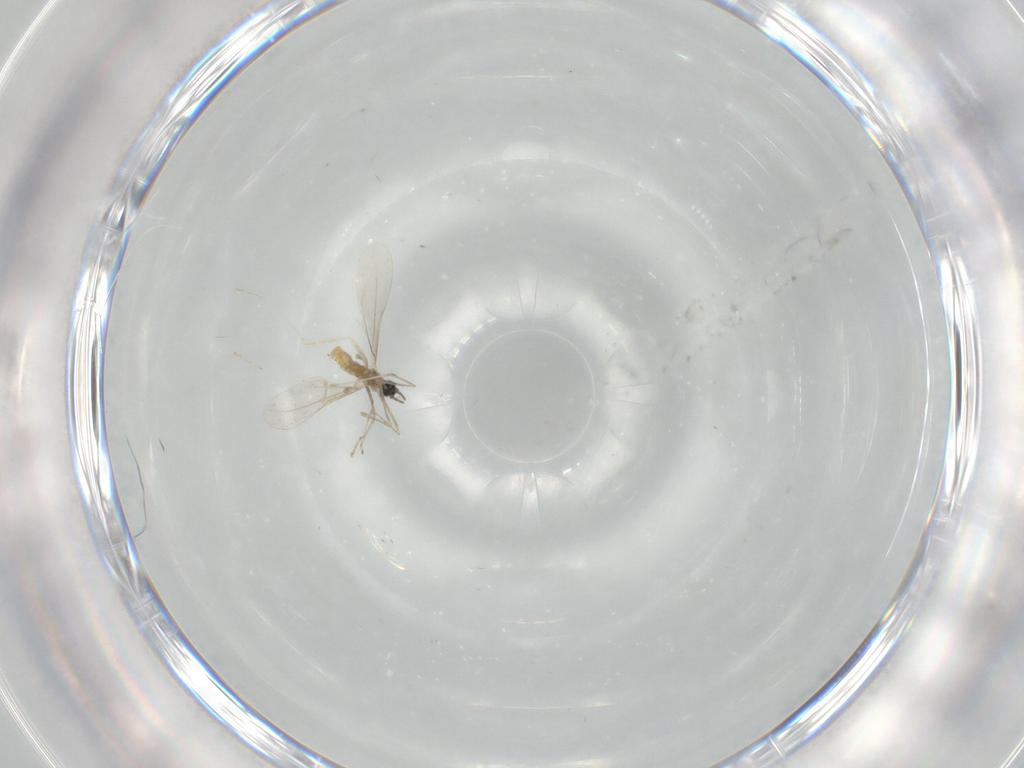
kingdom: Animalia
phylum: Arthropoda
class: Insecta
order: Diptera
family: Cecidomyiidae
